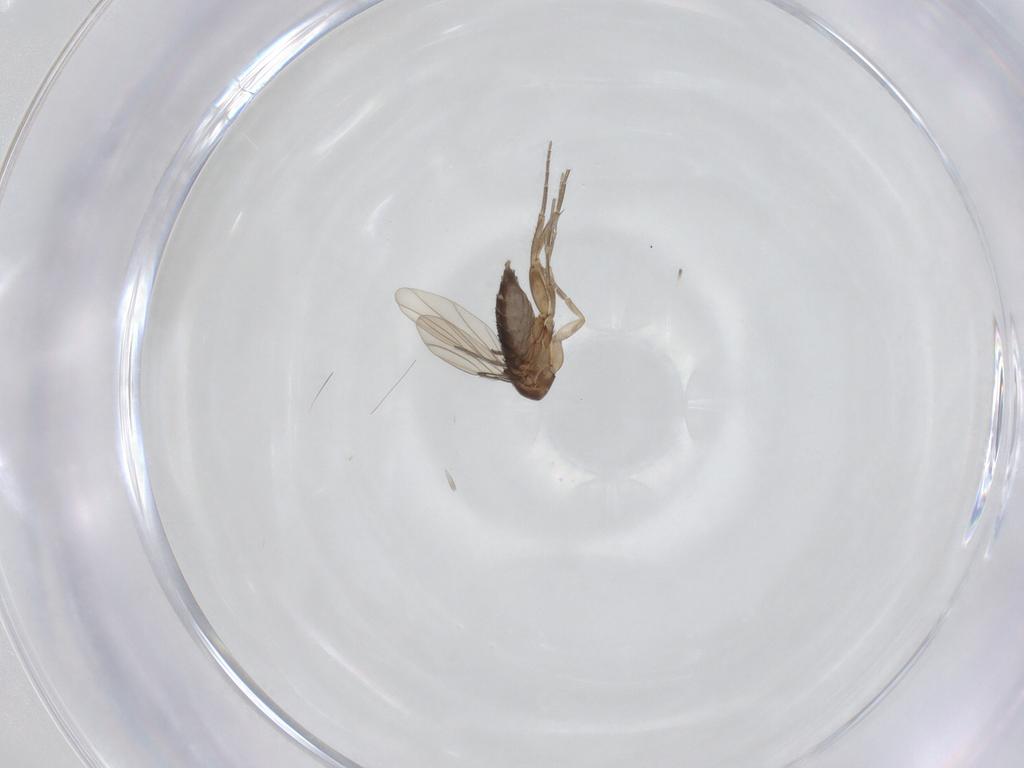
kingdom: Animalia
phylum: Arthropoda
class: Insecta
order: Diptera
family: Phoridae
